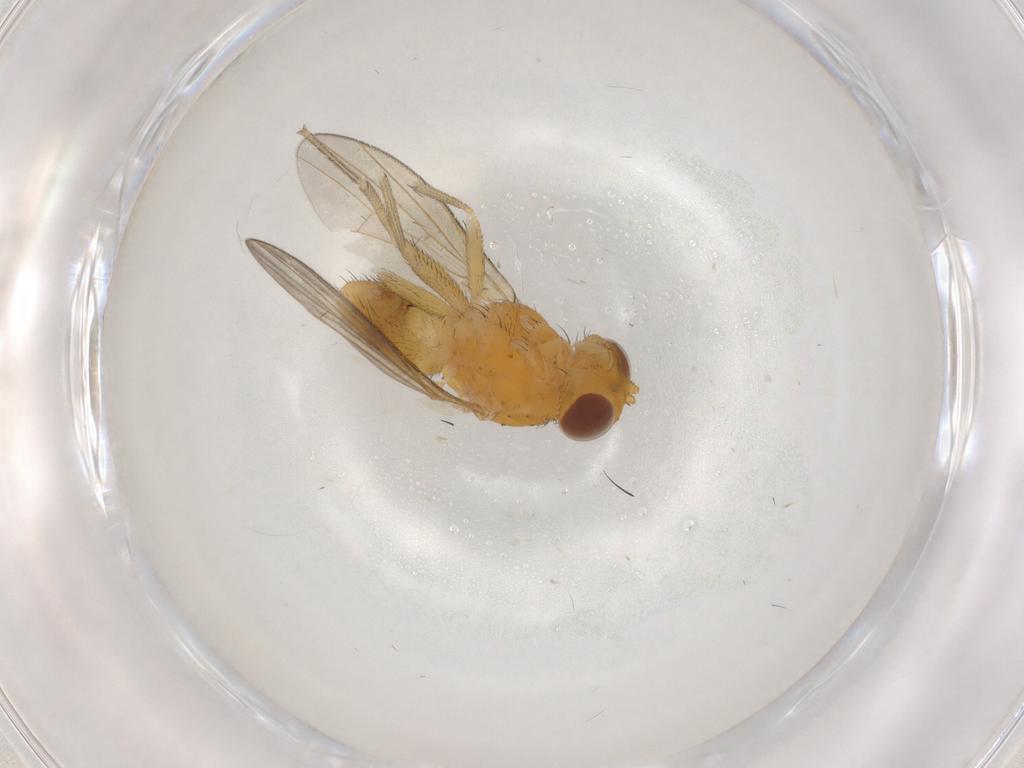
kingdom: Animalia
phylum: Arthropoda
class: Insecta
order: Diptera
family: Lauxaniidae
